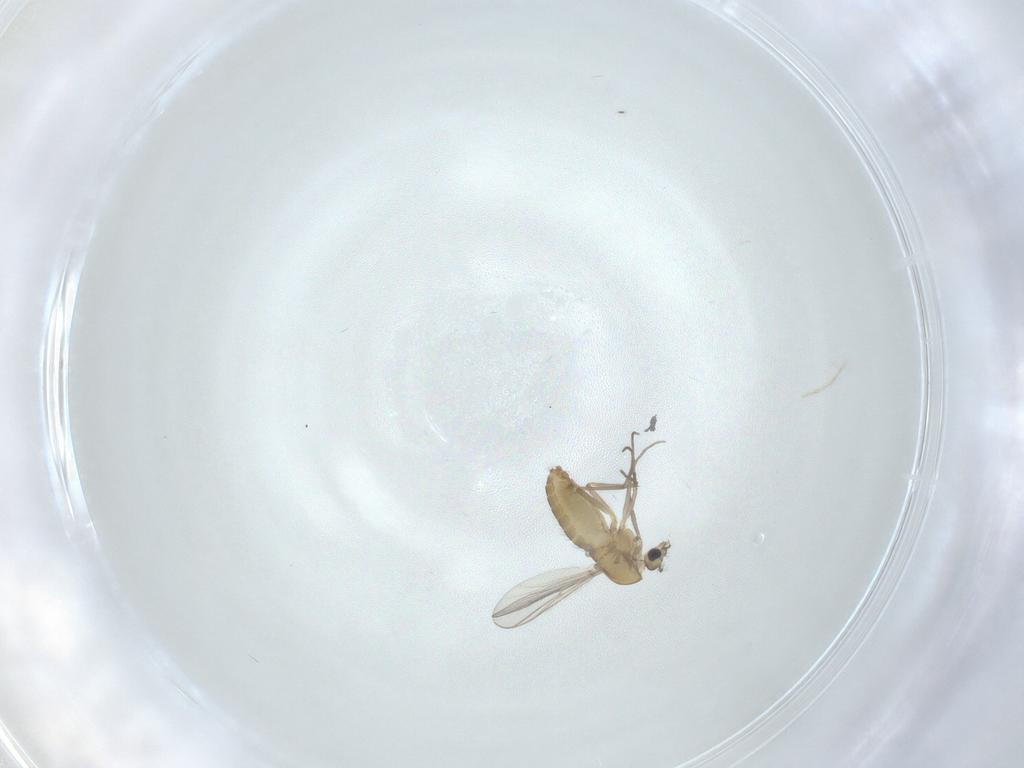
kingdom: Animalia
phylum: Arthropoda
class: Insecta
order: Diptera
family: Chironomidae
